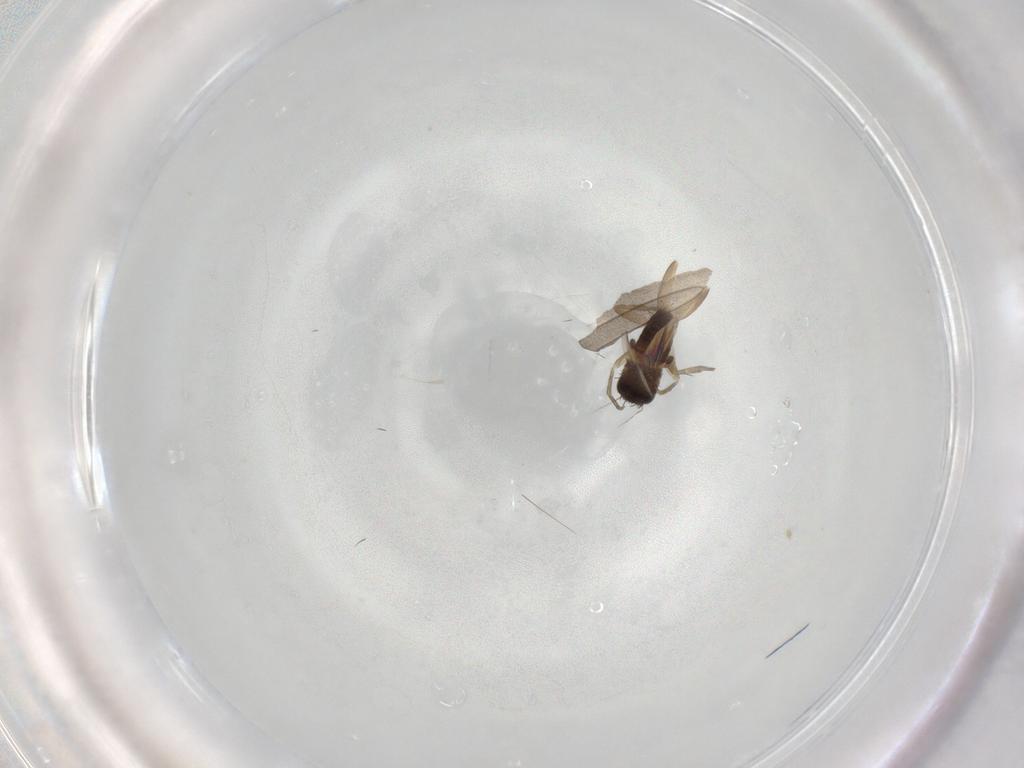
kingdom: Animalia
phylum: Arthropoda
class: Insecta
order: Diptera
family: Phoridae
